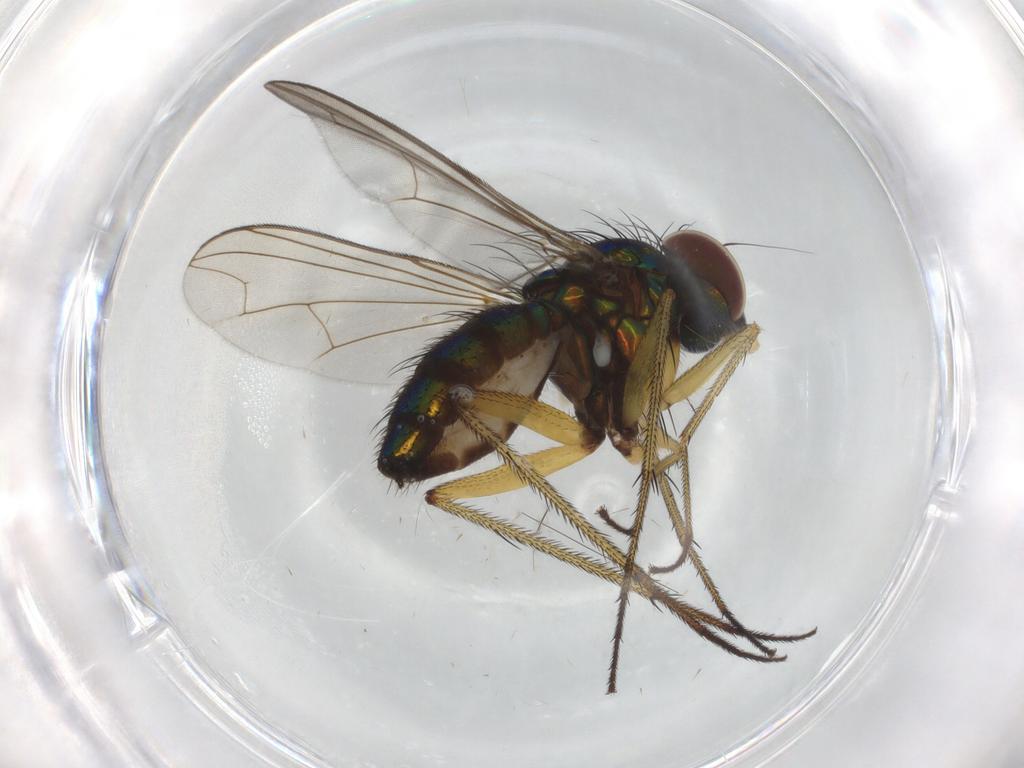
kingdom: Animalia
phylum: Arthropoda
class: Insecta
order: Diptera
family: Dolichopodidae
